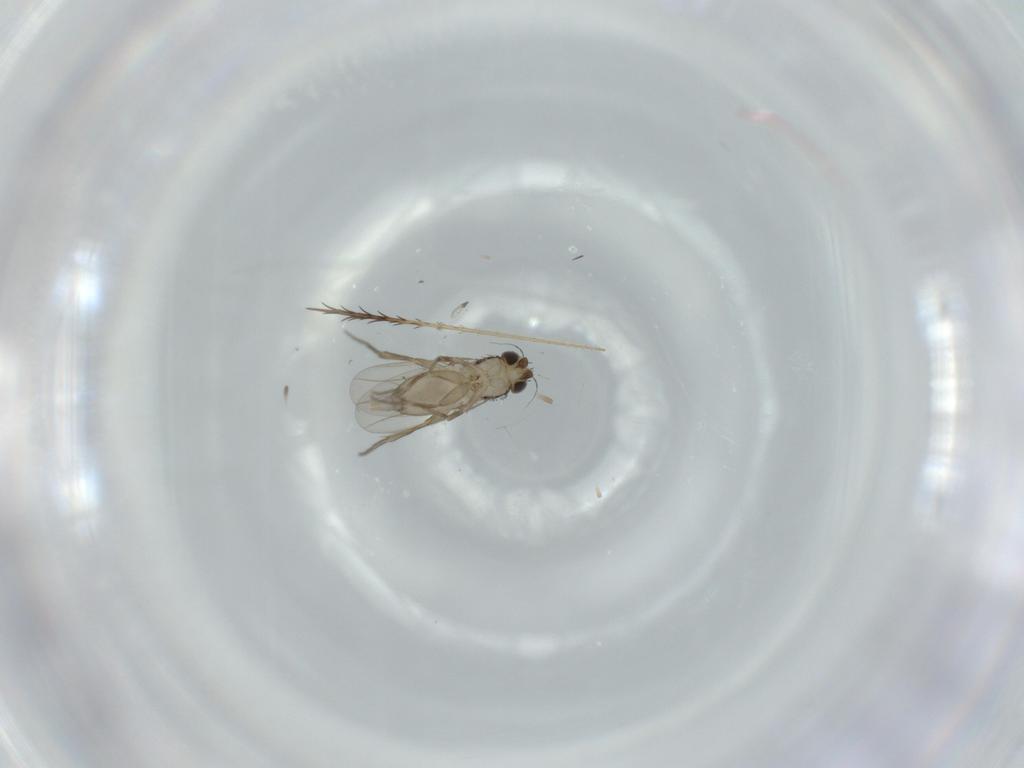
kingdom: Animalia
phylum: Arthropoda
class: Insecta
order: Diptera
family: Phoridae
